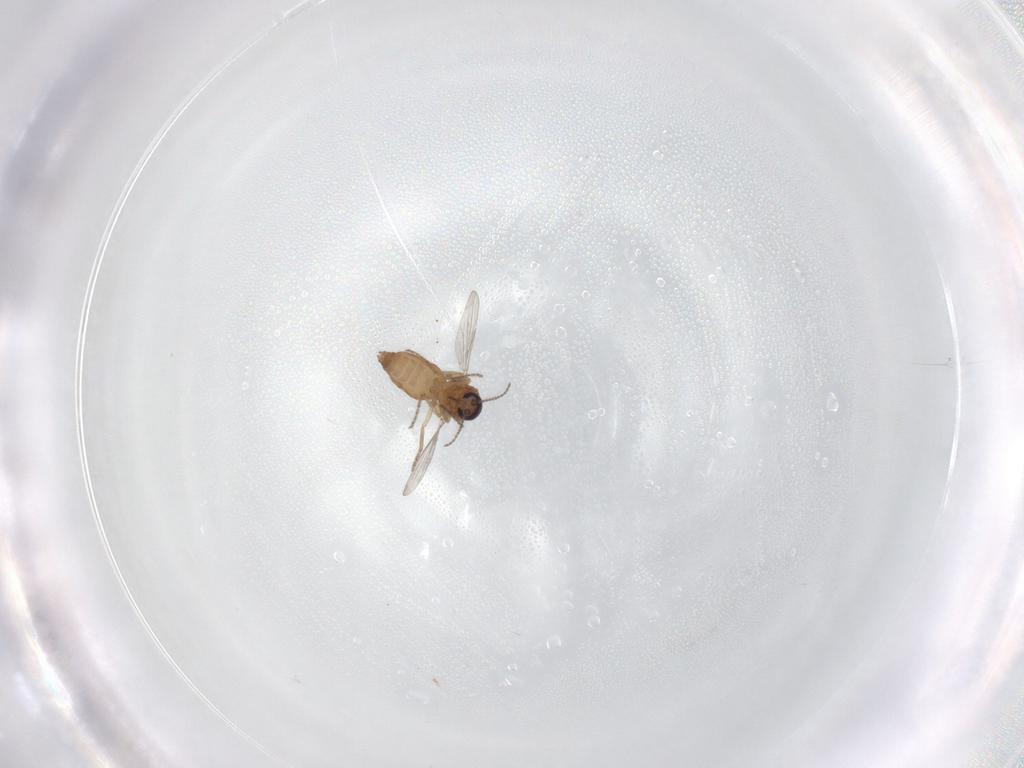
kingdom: Animalia
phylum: Arthropoda
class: Insecta
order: Diptera
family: Ceratopogonidae
